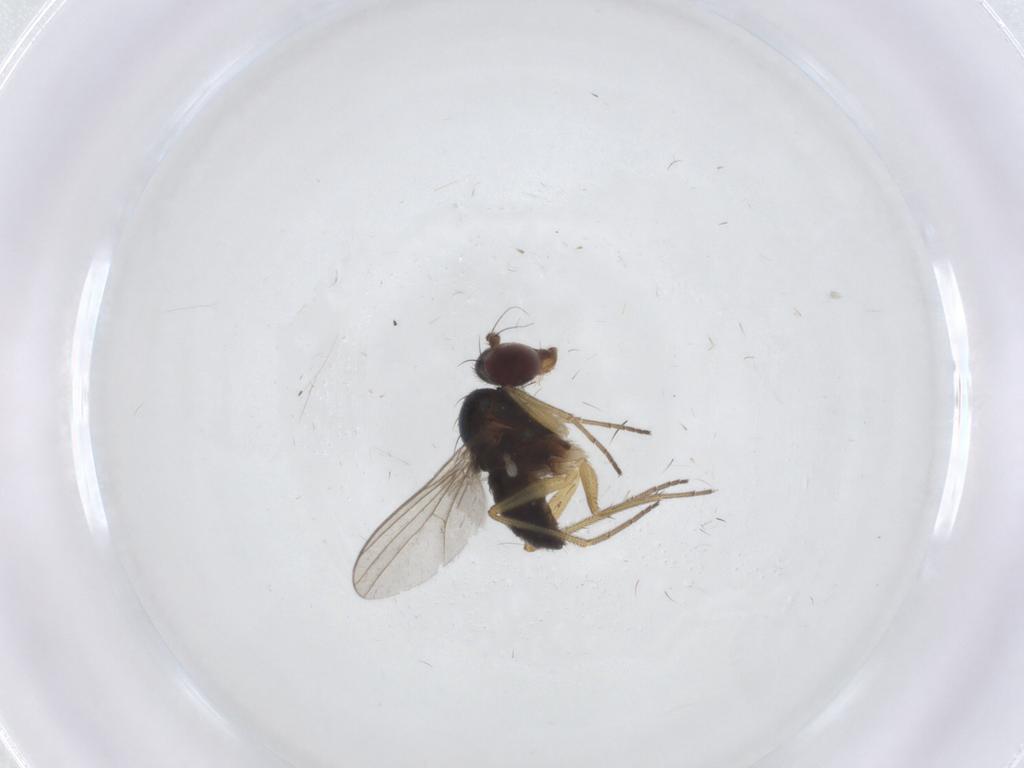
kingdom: Animalia
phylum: Arthropoda
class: Insecta
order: Diptera
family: Dolichopodidae
